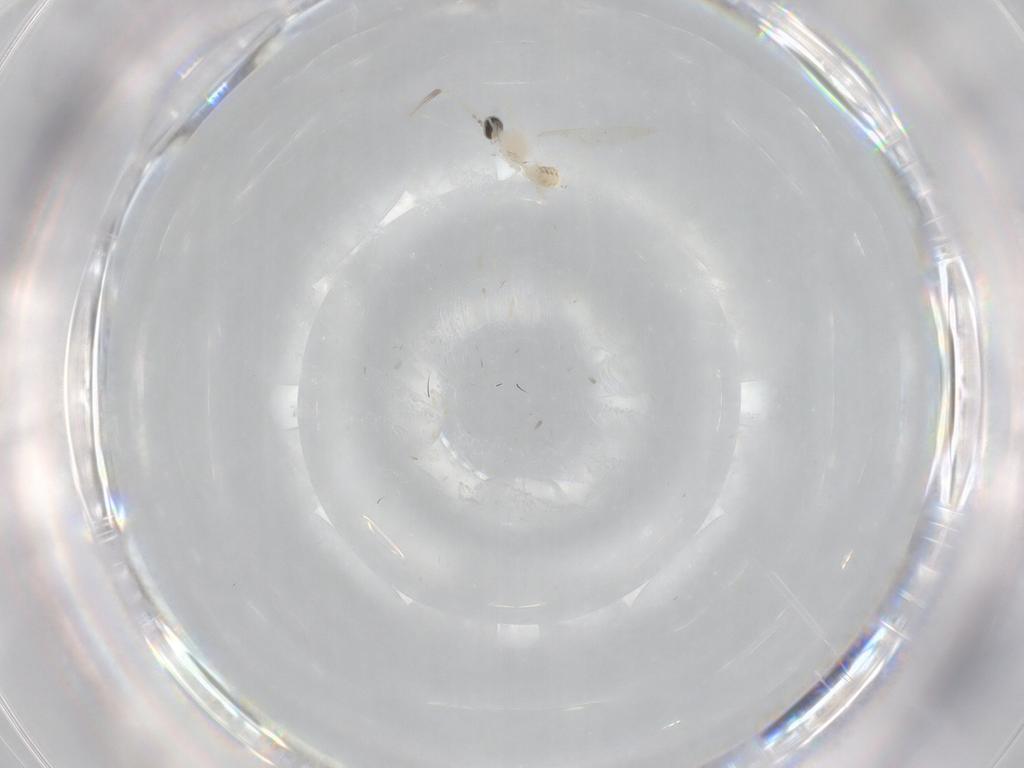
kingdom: Animalia
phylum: Arthropoda
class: Insecta
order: Diptera
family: Cecidomyiidae
